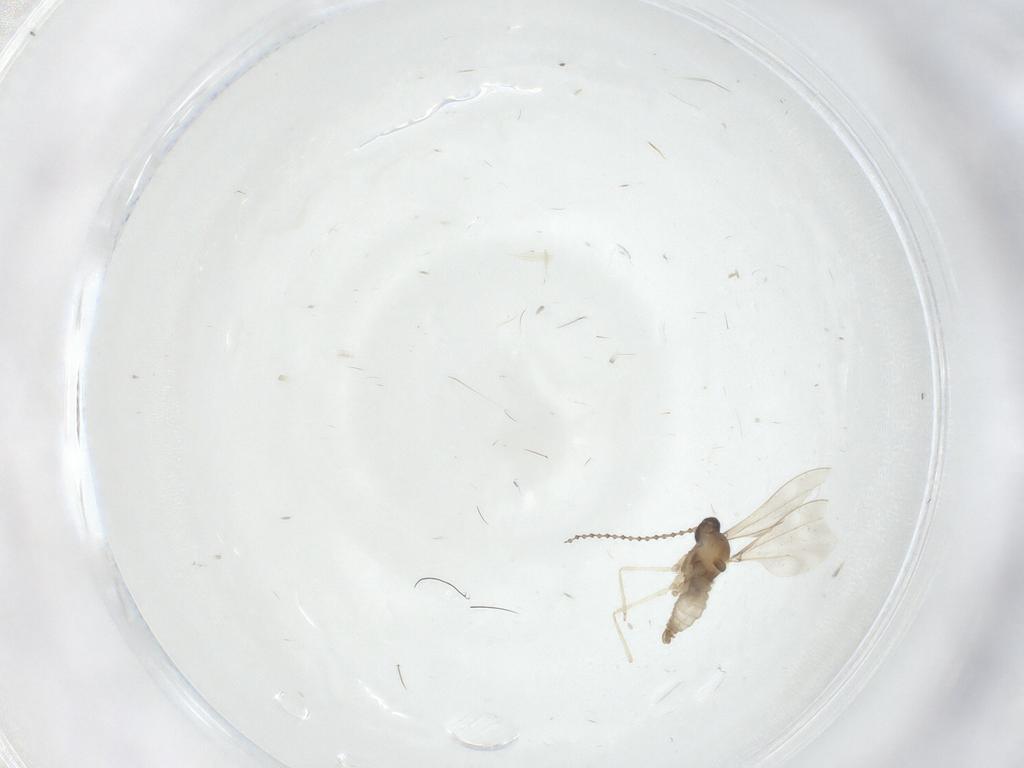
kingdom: Animalia
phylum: Arthropoda
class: Insecta
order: Diptera
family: Cecidomyiidae
